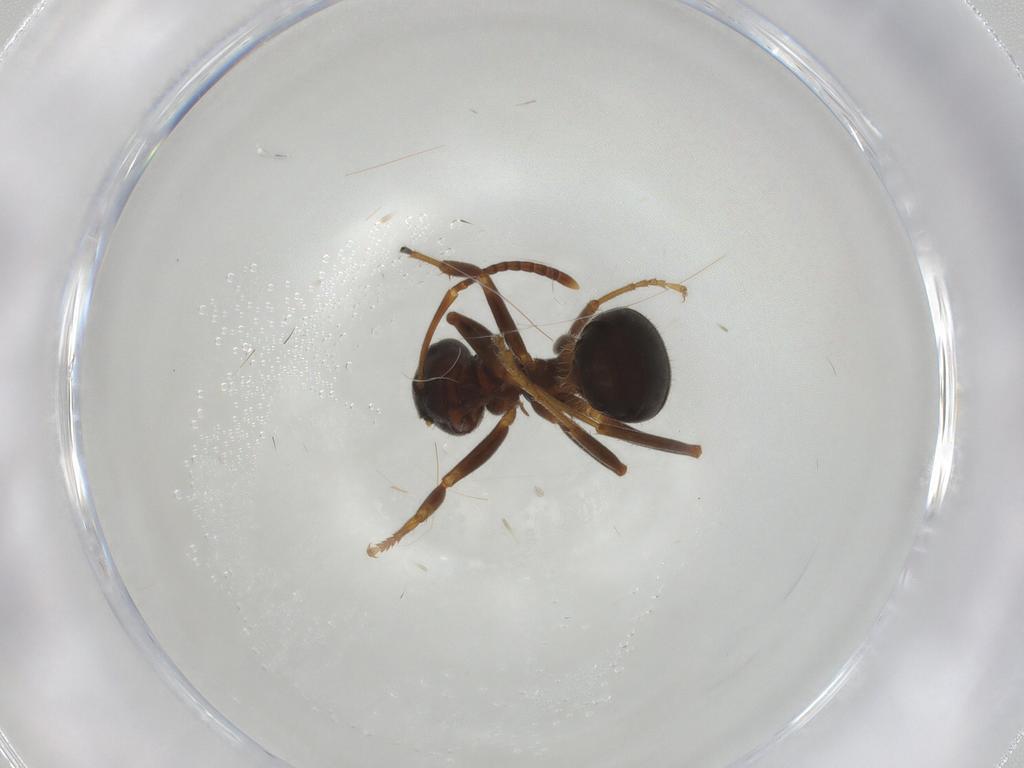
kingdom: Animalia
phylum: Arthropoda
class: Insecta
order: Hymenoptera
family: Formicidae
